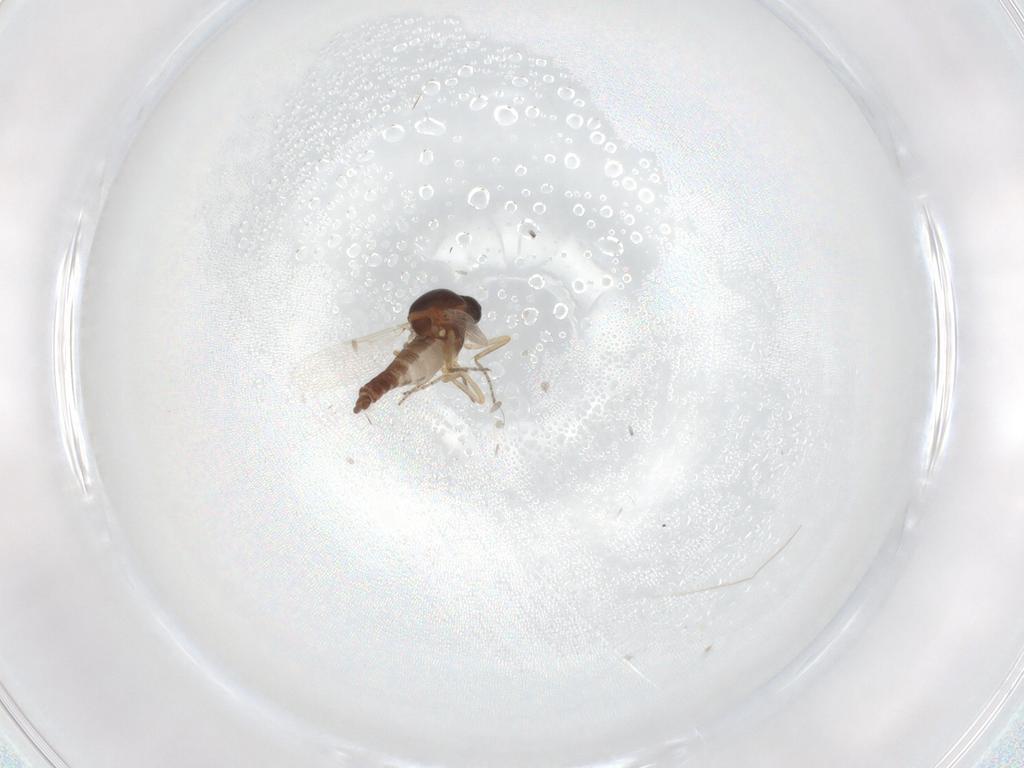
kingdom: Animalia
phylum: Arthropoda
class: Insecta
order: Diptera
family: Ceratopogonidae
